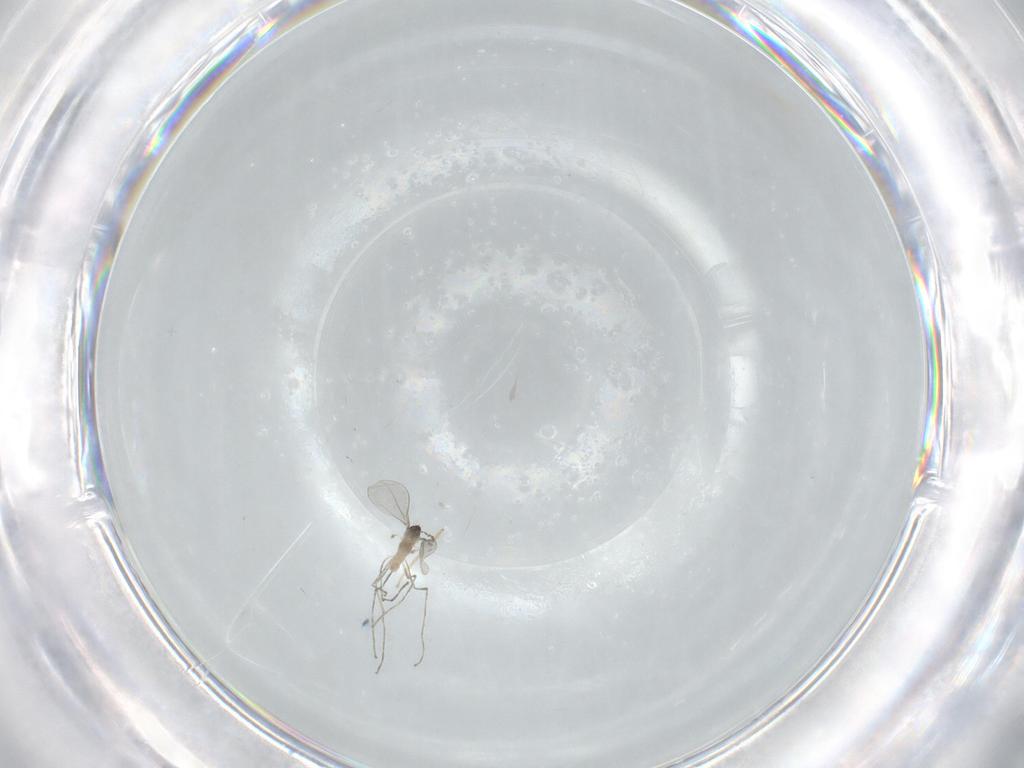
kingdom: Animalia
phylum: Arthropoda
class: Insecta
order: Diptera
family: Cecidomyiidae
